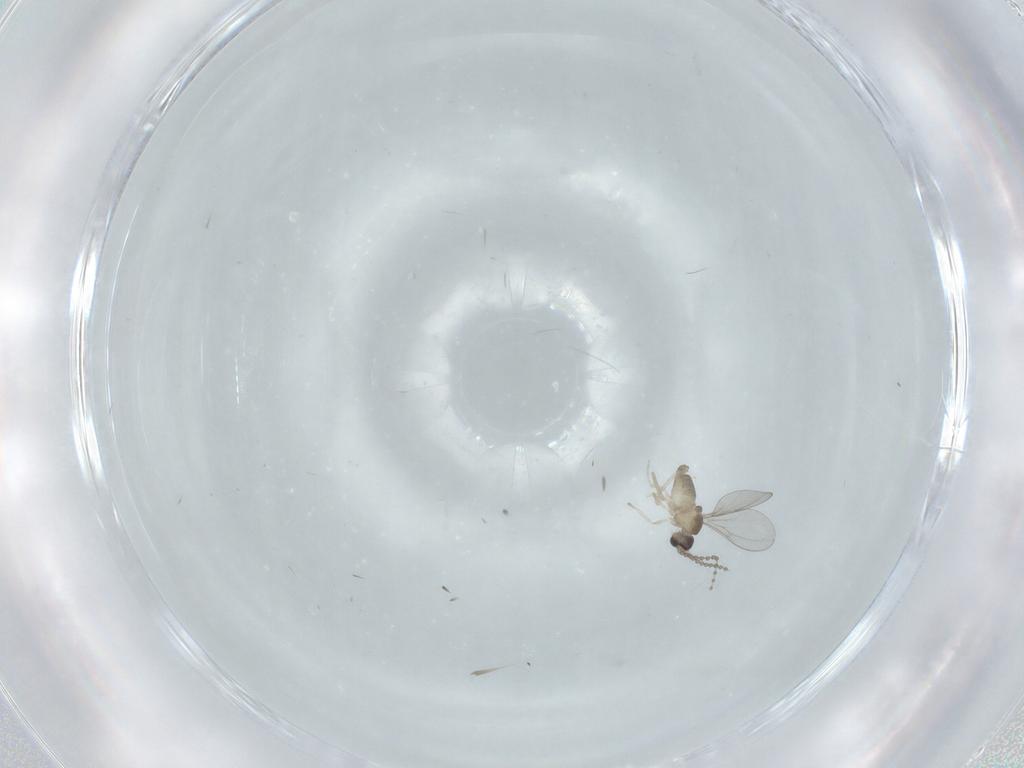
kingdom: Animalia
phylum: Arthropoda
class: Insecta
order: Diptera
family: Cecidomyiidae
